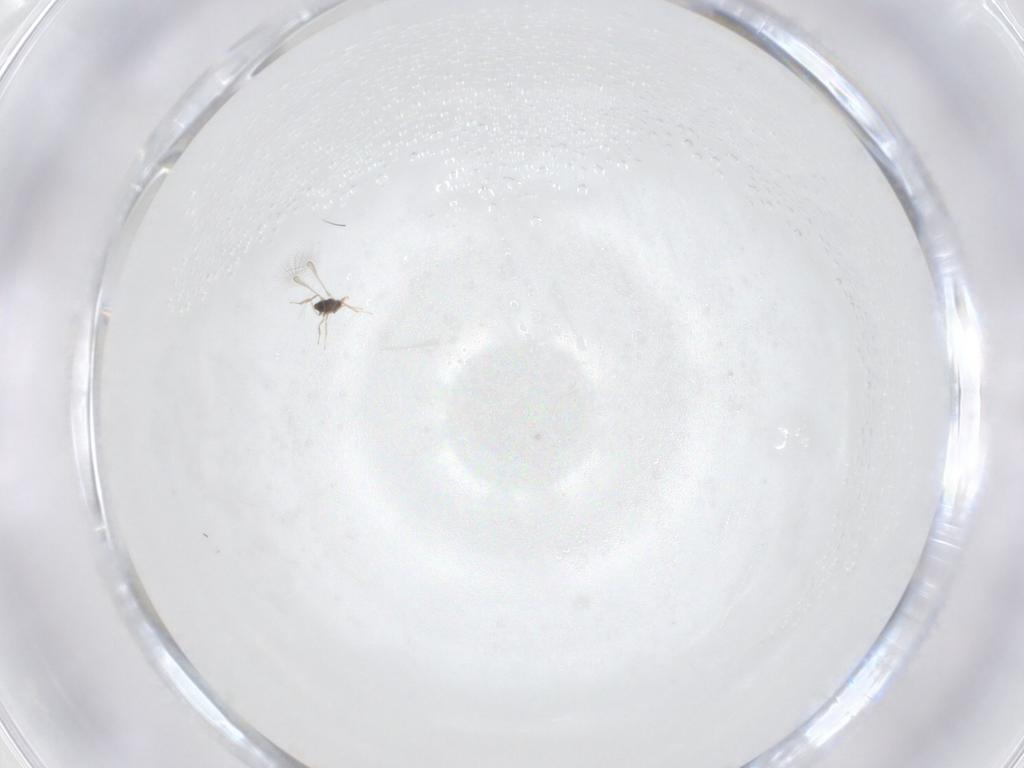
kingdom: Animalia
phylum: Arthropoda
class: Insecta
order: Hymenoptera
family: Mymaridae
